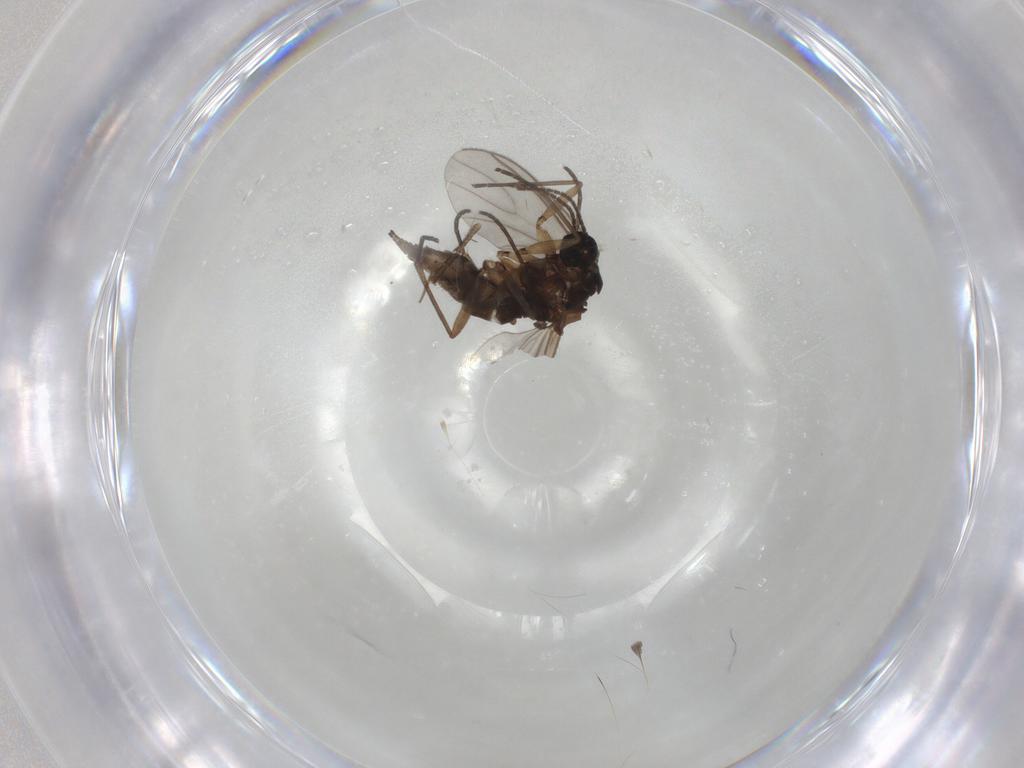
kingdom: Animalia
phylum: Arthropoda
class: Insecta
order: Diptera
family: Sciaridae
